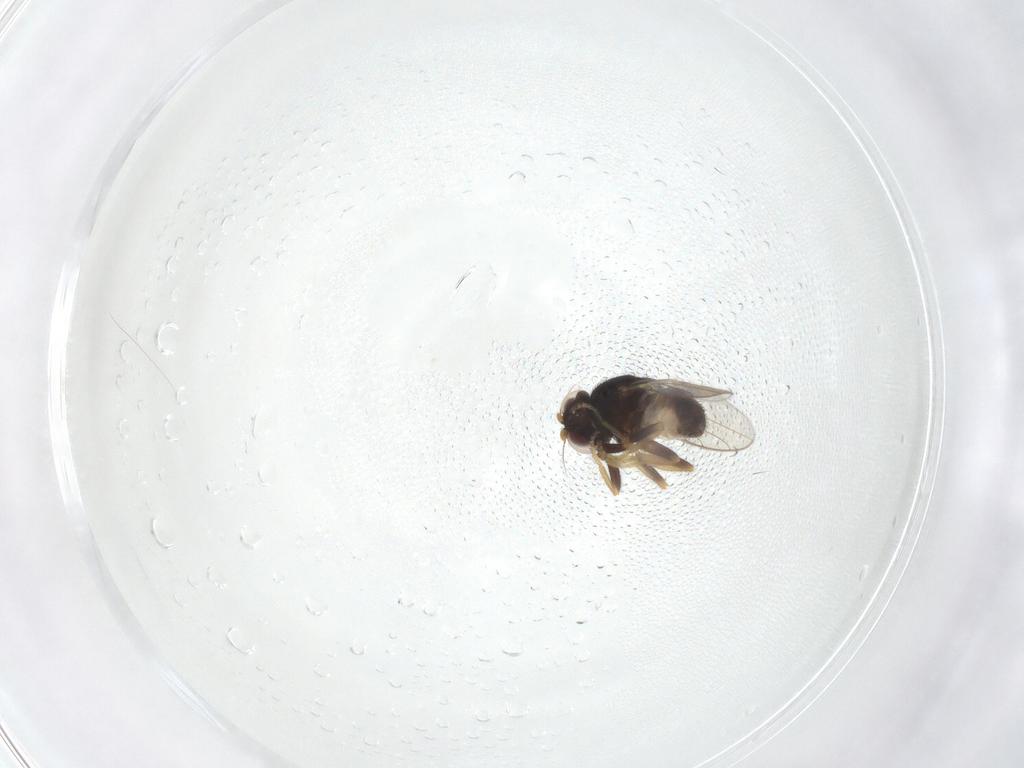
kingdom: Animalia
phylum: Arthropoda
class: Insecta
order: Diptera
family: Chloropidae
